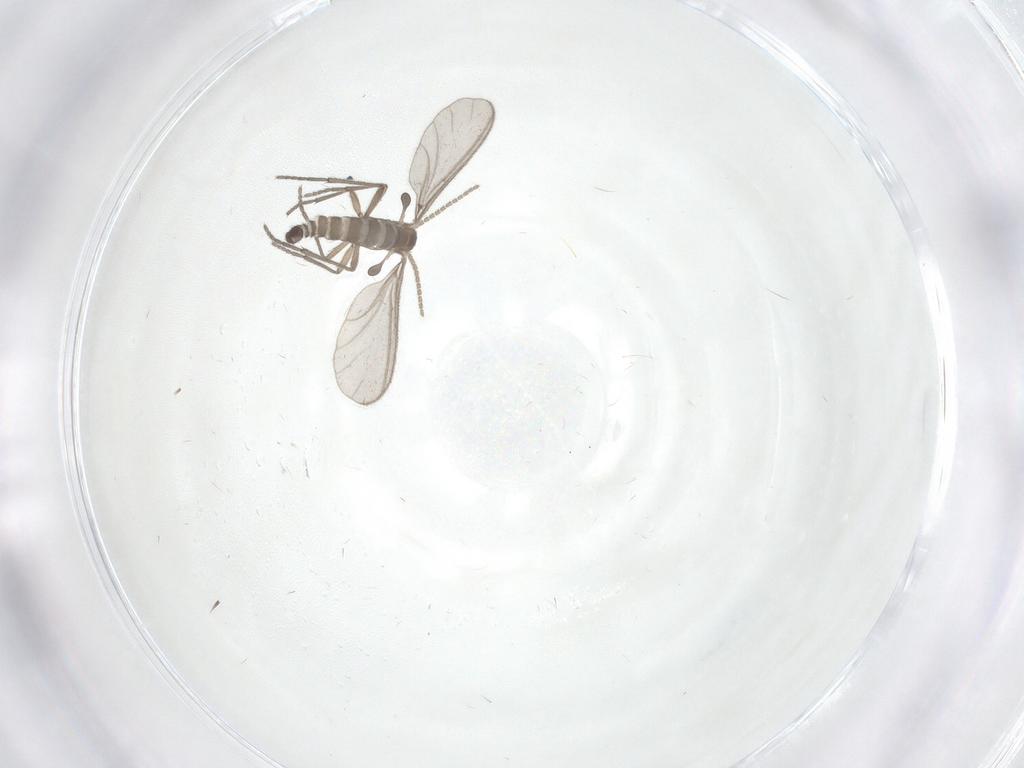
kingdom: Animalia
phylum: Arthropoda
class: Insecta
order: Diptera
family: Sciaridae
